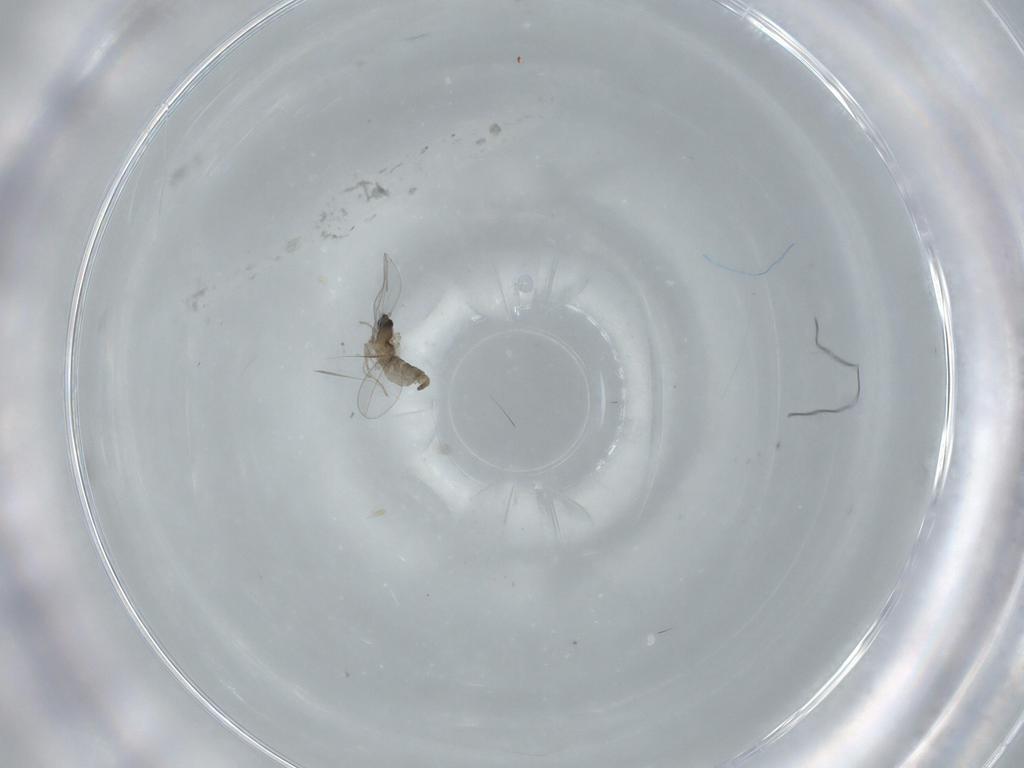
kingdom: Animalia
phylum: Arthropoda
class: Insecta
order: Diptera
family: Cecidomyiidae
